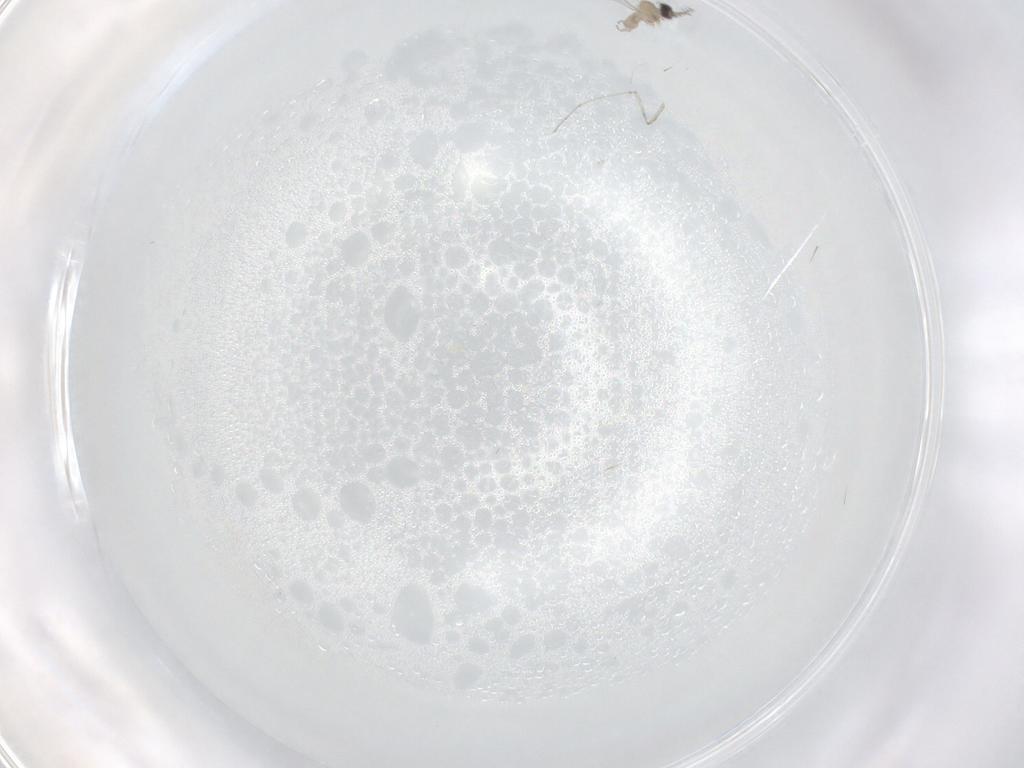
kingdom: Animalia
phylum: Arthropoda
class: Insecta
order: Diptera
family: Cecidomyiidae
